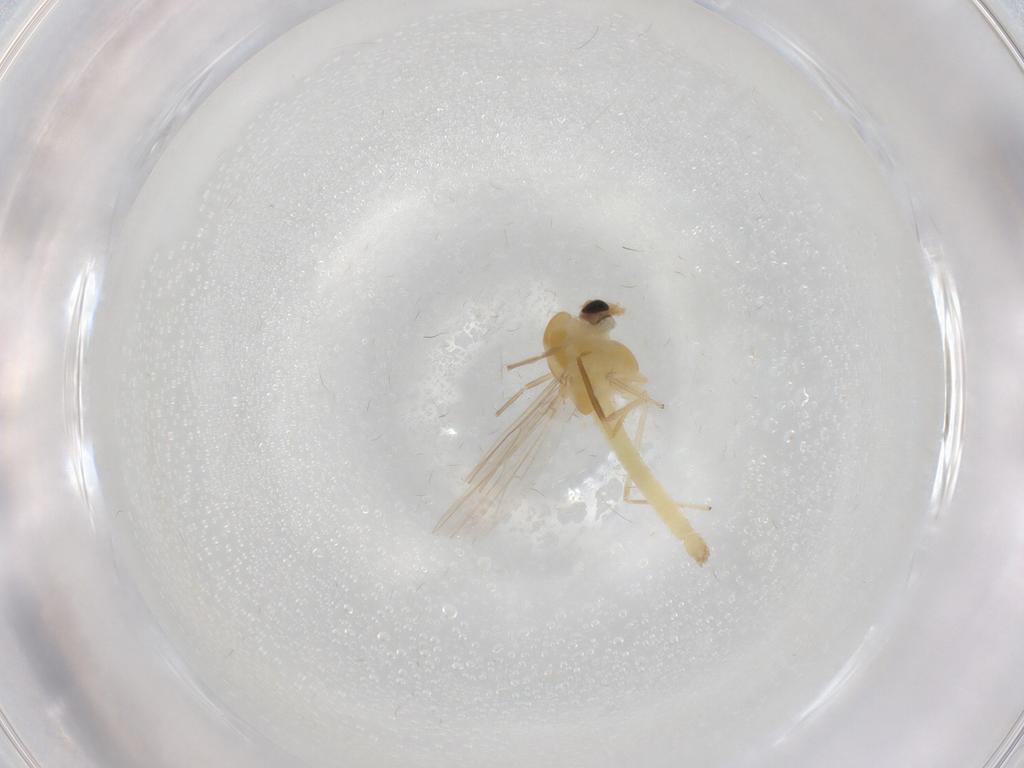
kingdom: Animalia
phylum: Arthropoda
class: Insecta
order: Diptera
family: Chironomidae
